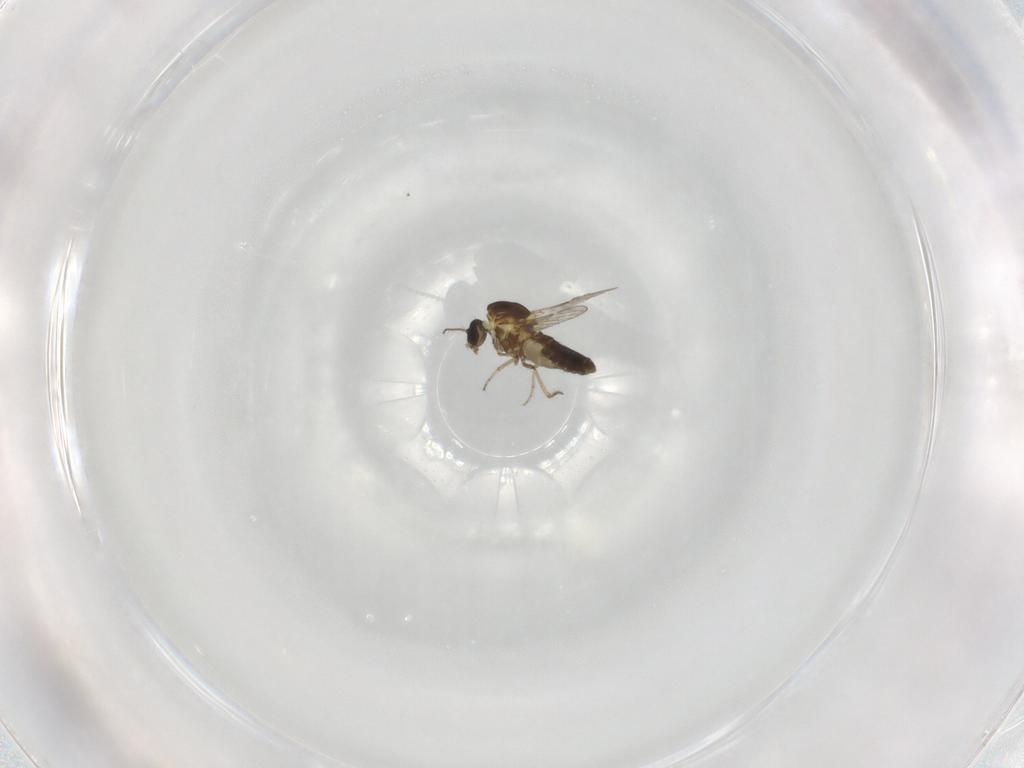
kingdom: Animalia
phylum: Arthropoda
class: Insecta
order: Diptera
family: Ceratopogonidae
